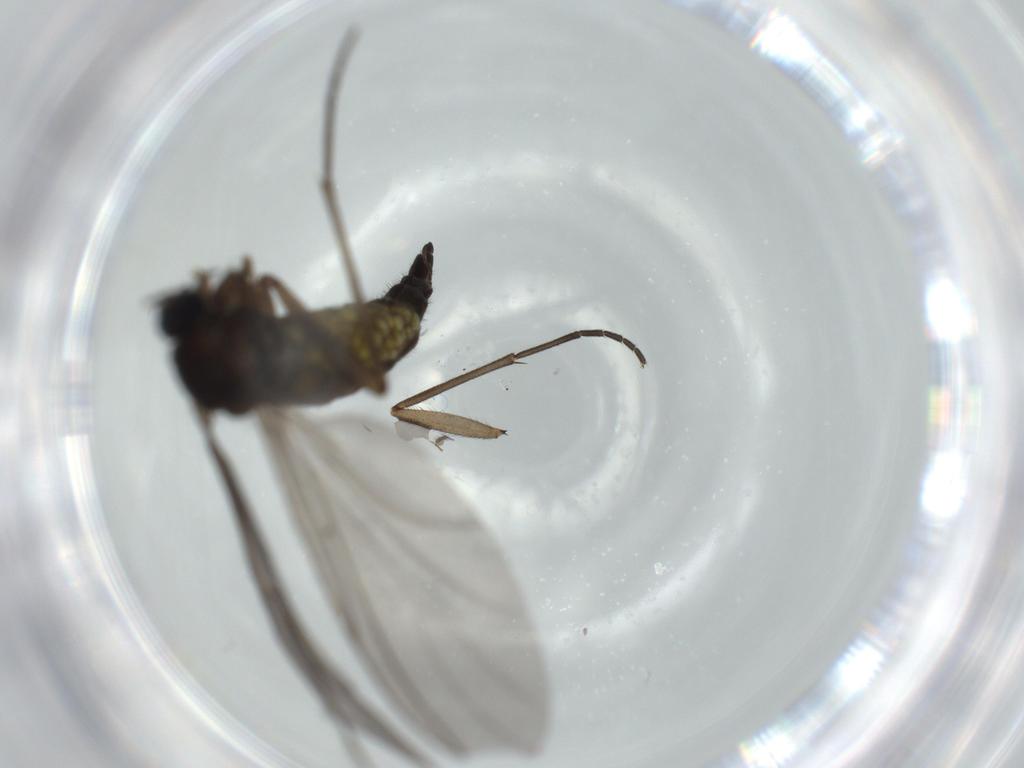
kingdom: Animalia
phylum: Arthropoda
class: Insecta
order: Diptera
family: Sciaridae
